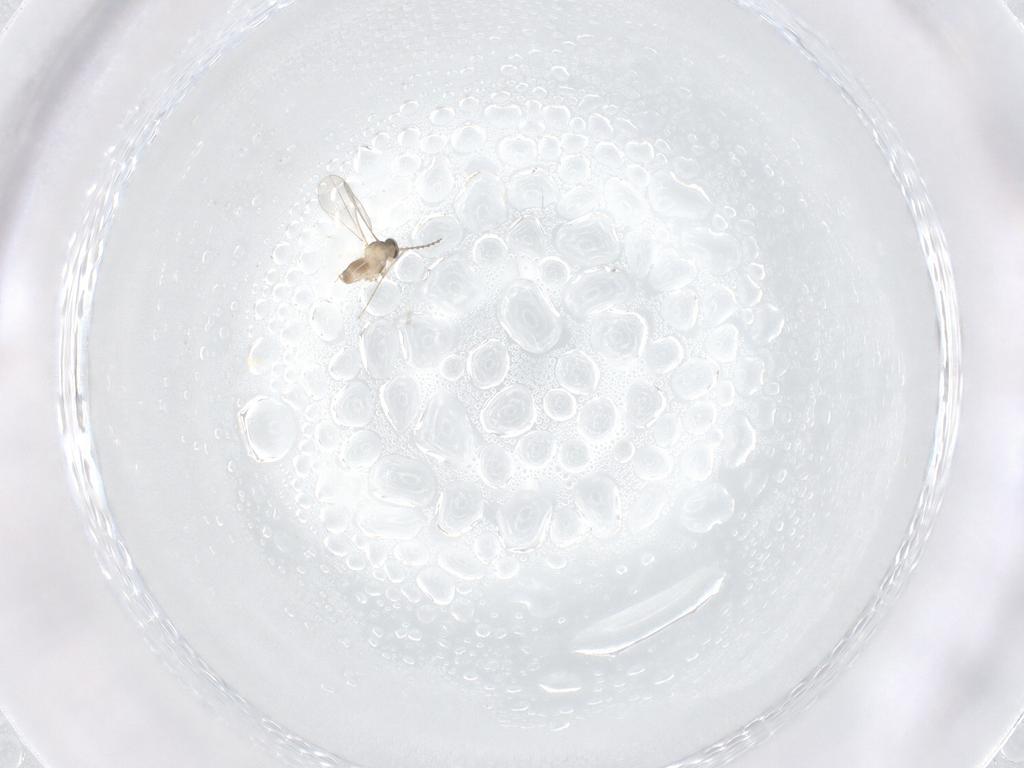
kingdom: Animalia
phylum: Arthropoda
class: Insecta
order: Diptera
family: Cecidomyiidae
